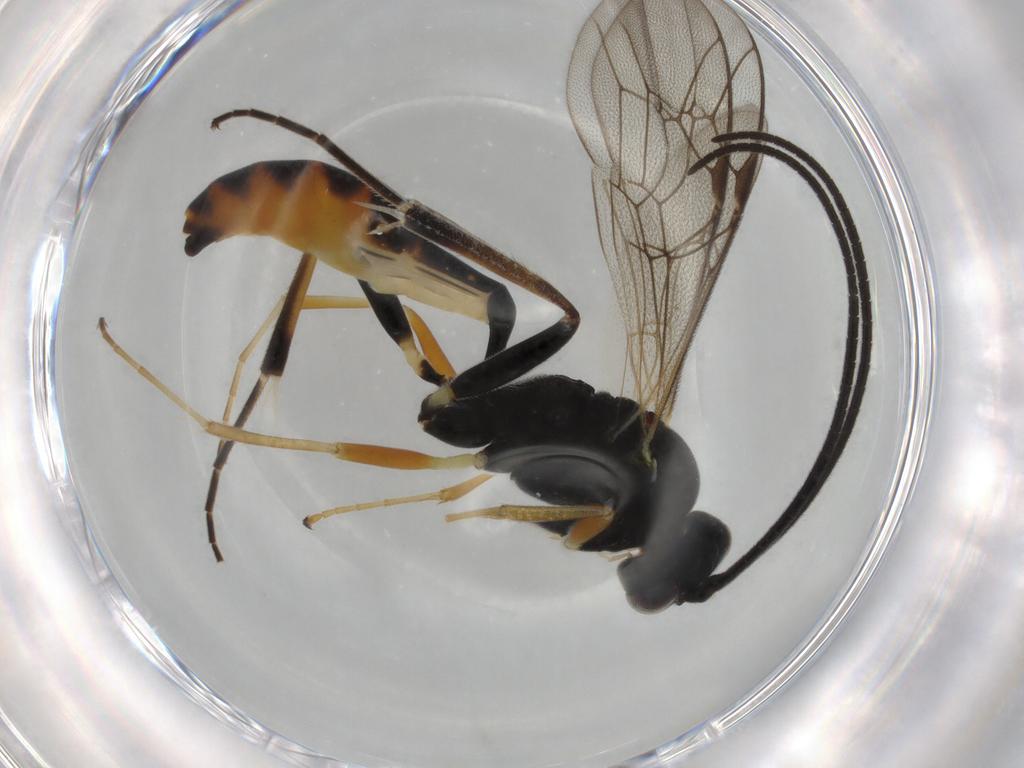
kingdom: Animalia
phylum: Arthropoda
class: Insecta
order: Hymenoptera
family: Ichneumonidae
